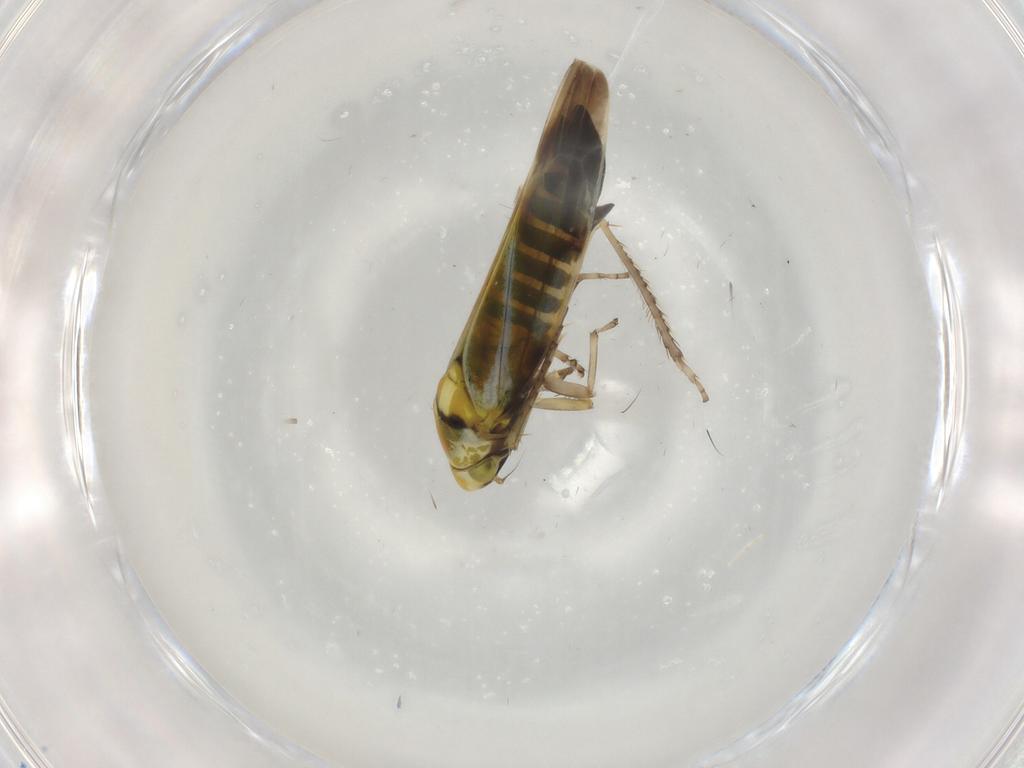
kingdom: Animalia
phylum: Arthropoda
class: Insecta
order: Hemiptera
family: Cicadellidae
